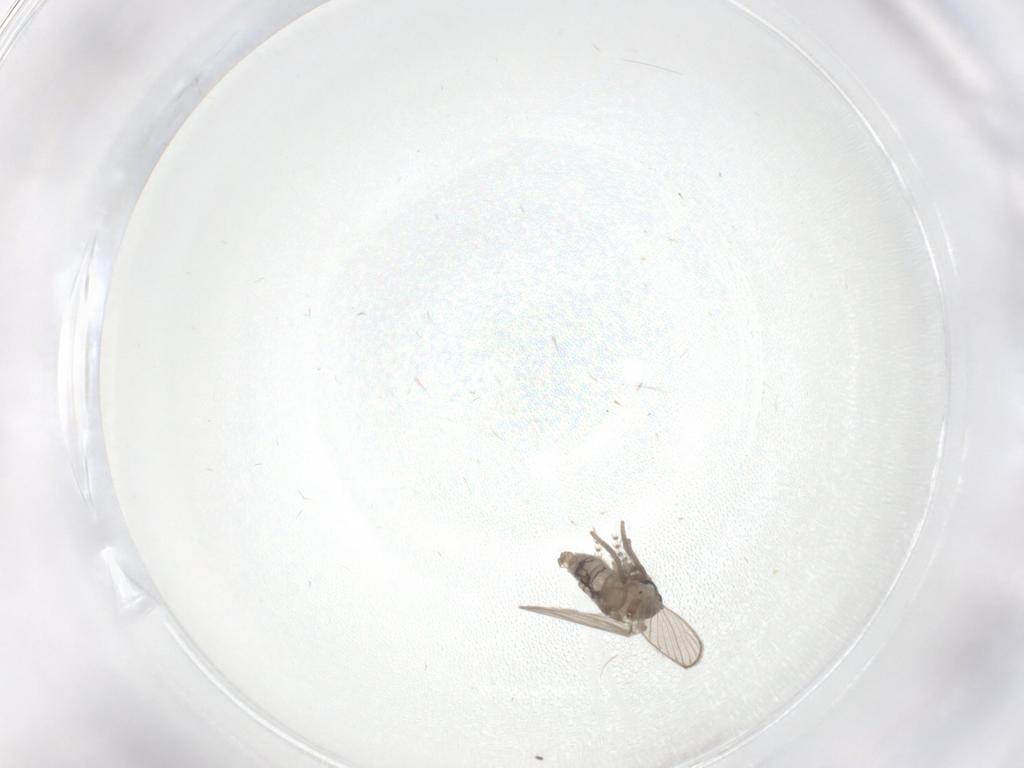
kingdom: Animalia
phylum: Arthropoda
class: Insecta
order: Diptera
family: Psychodidae
